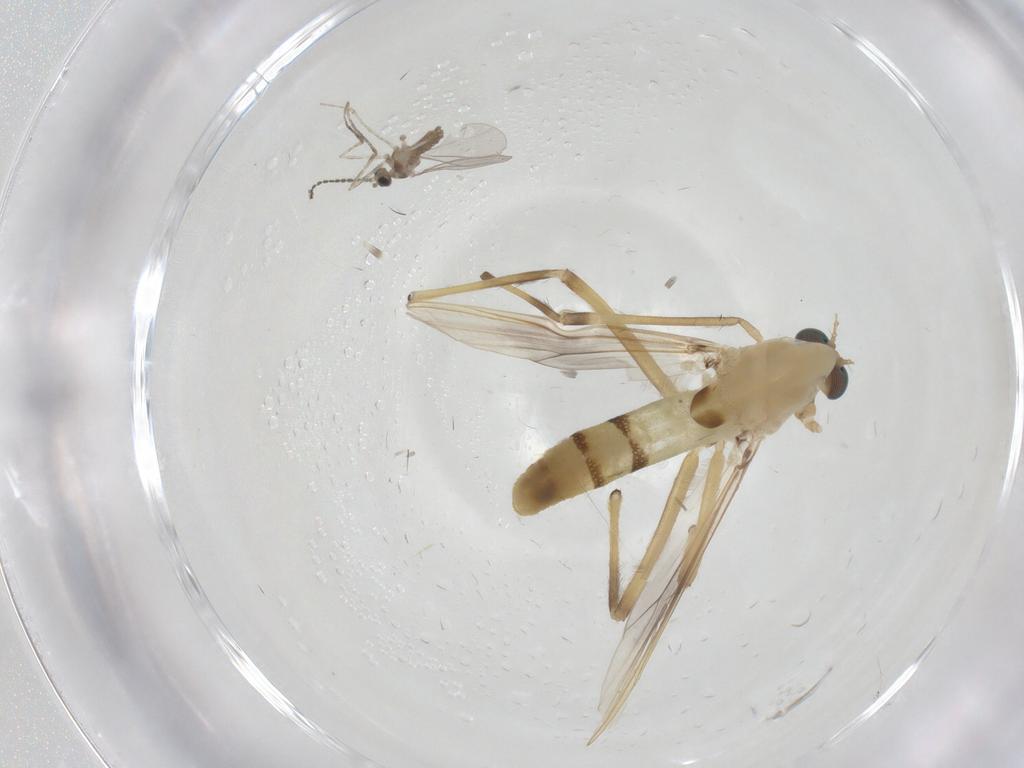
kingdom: Animalia
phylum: Arthropoda
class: Insecta
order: Diptera
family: Chironomidae
